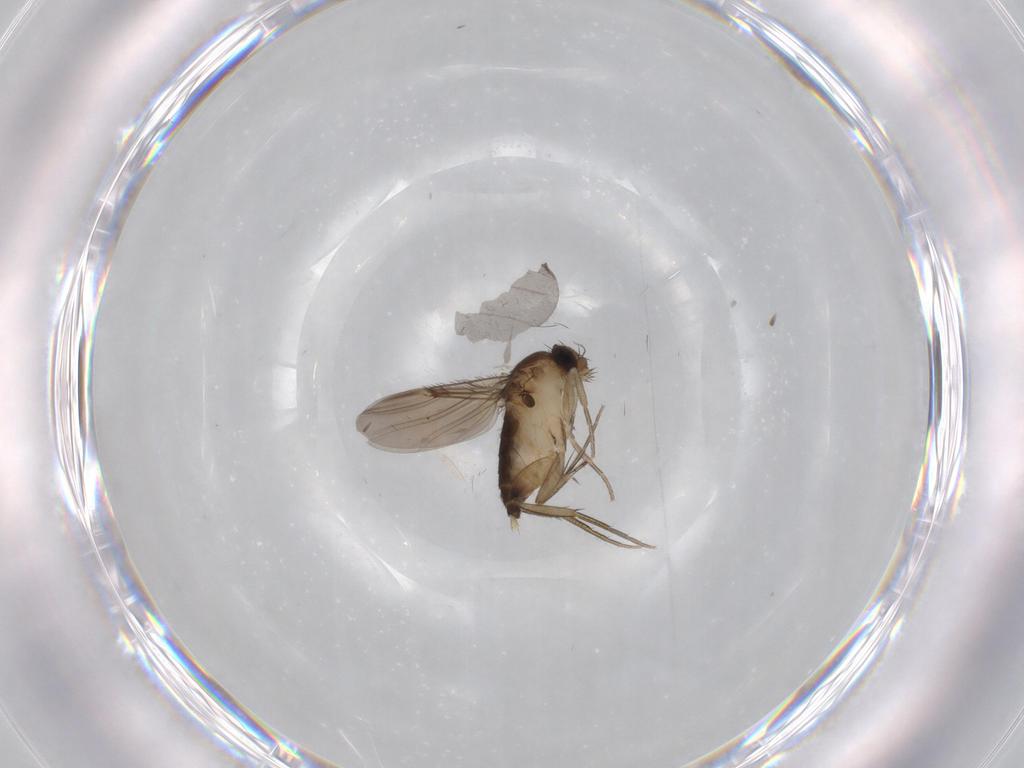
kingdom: Animalia
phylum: Arthropoda
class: Insecta
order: Diptera
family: Cecidomyiidae
